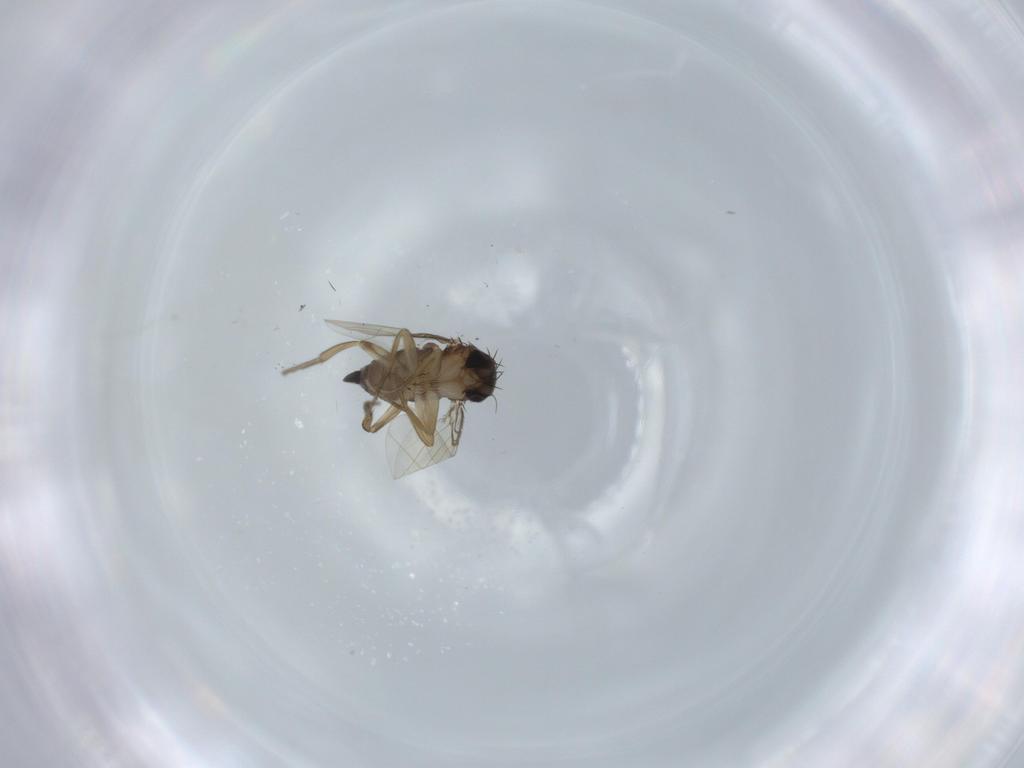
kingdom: Animalia
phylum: Arthropoda
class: Insecta
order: Diptera
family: Phoridae
